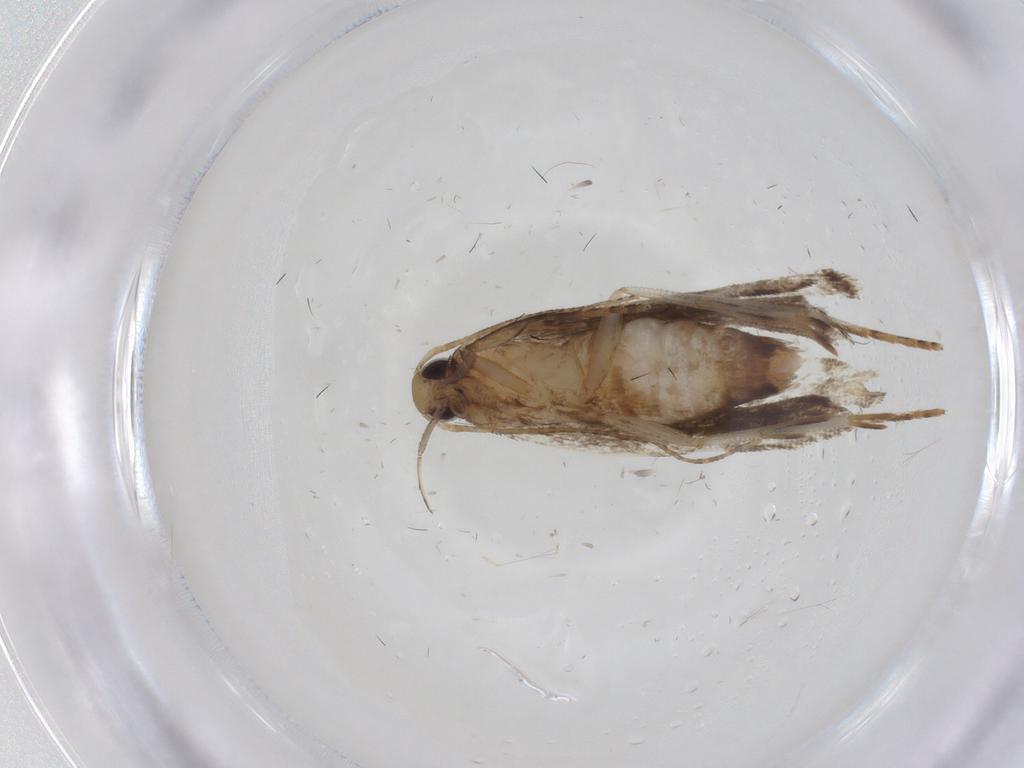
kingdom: Animalia
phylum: Arthropoda
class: Insecta
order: Lepidoptera
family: Gelechiidae
